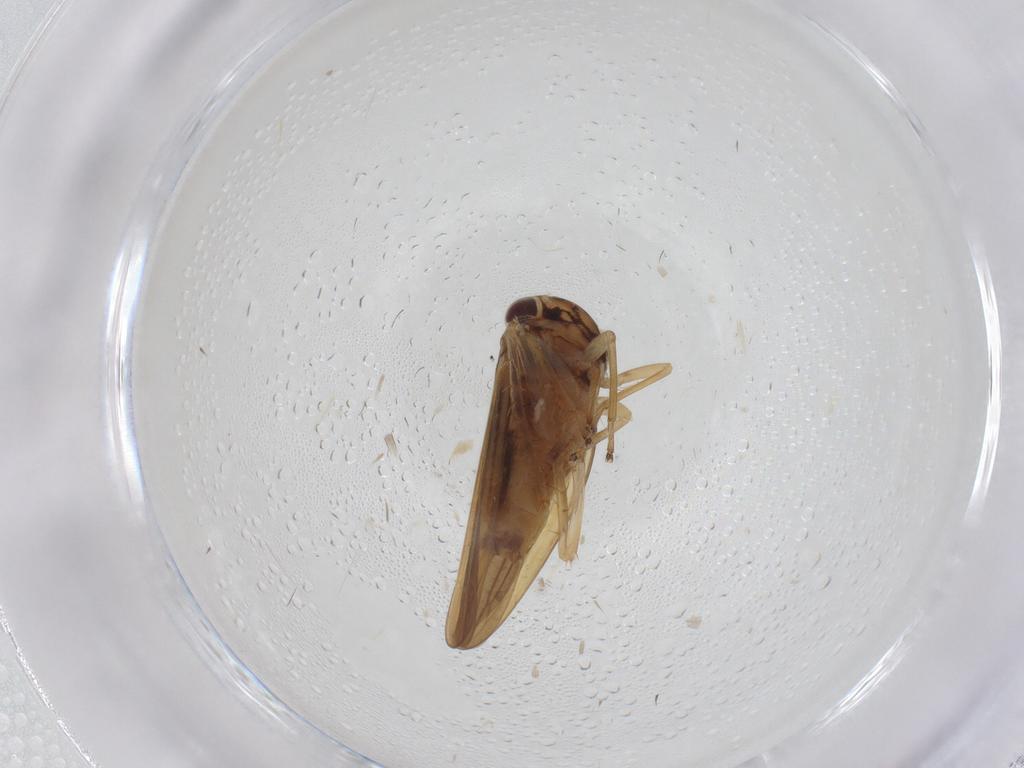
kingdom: Animalia
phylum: Arthropoda
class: Insecta
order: Hemiptera
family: Cicadellidae
